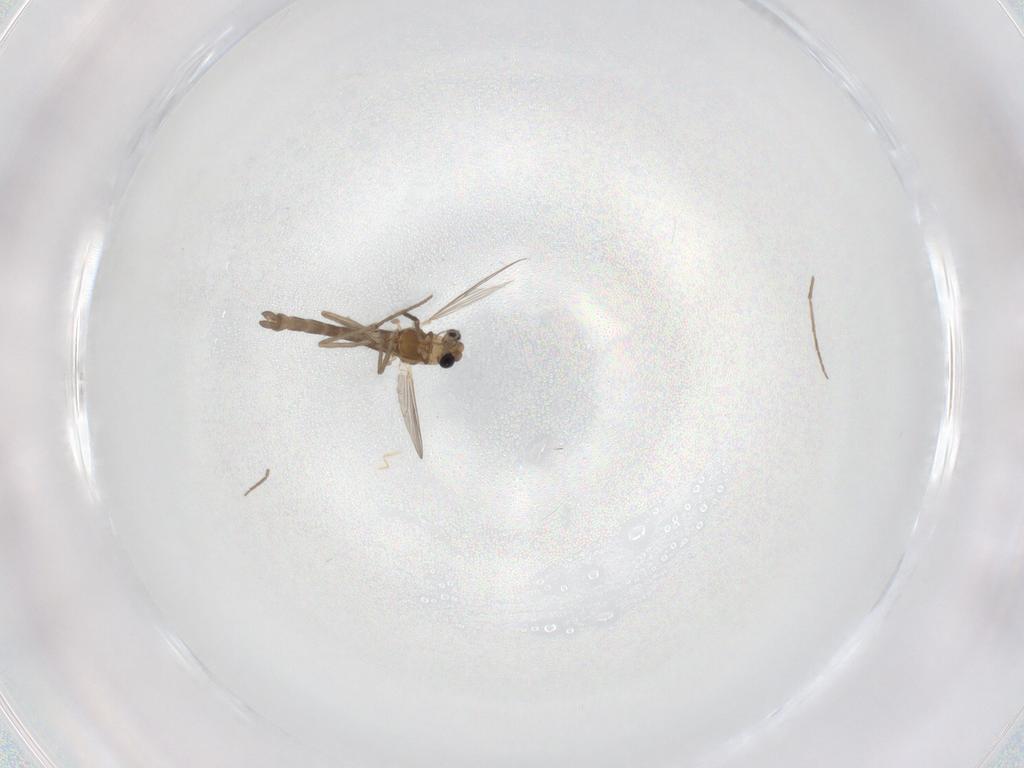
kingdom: Animalia
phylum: Arthropoda
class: Insecta
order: Diptera
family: Chironomidae
